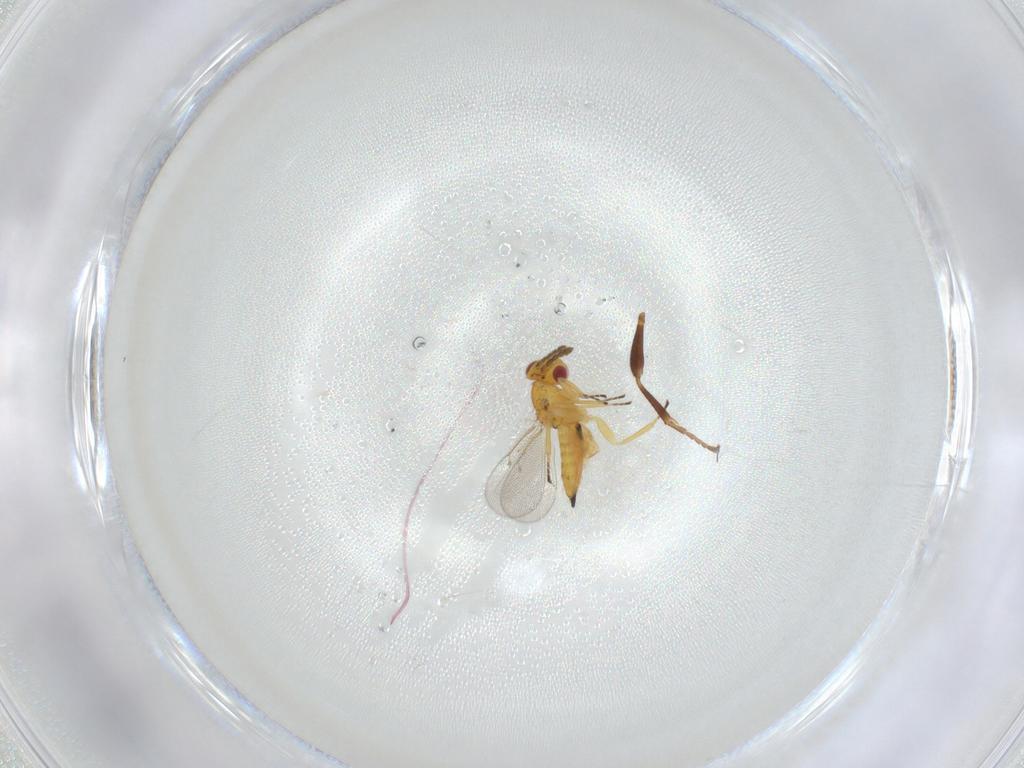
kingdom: Animalia
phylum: Arthropoda
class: Insecta
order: Hymenoptera
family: Eulophidae
